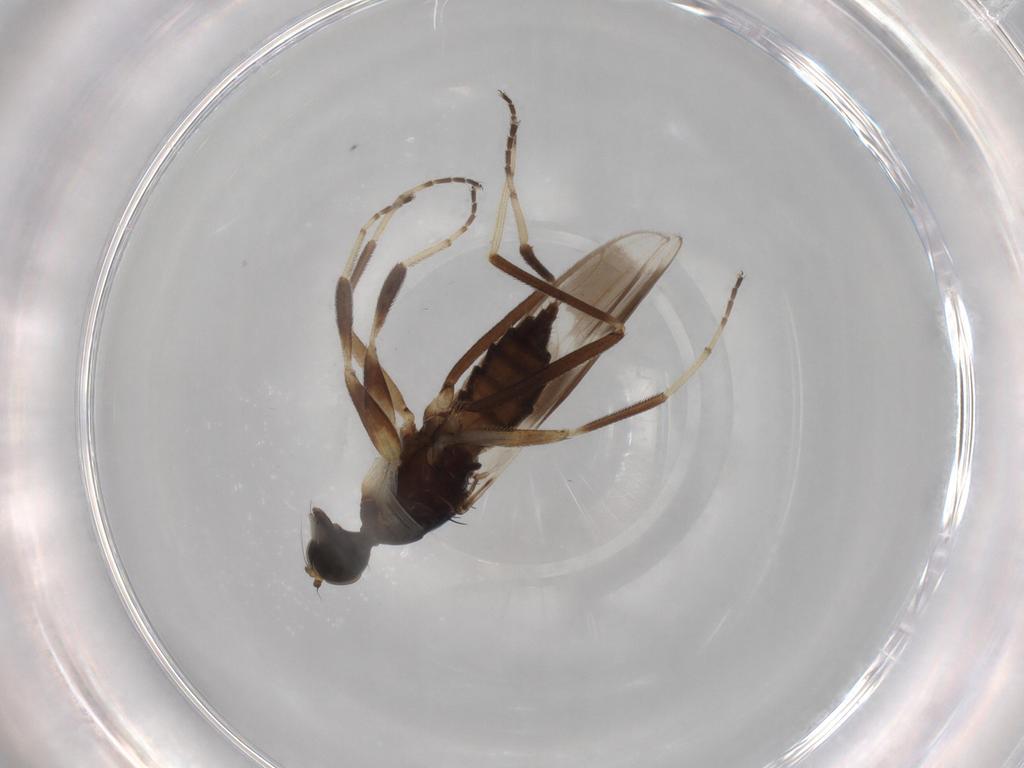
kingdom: Animalia
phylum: Arthropoda
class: Insecta
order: Diptera
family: Hybotidae
